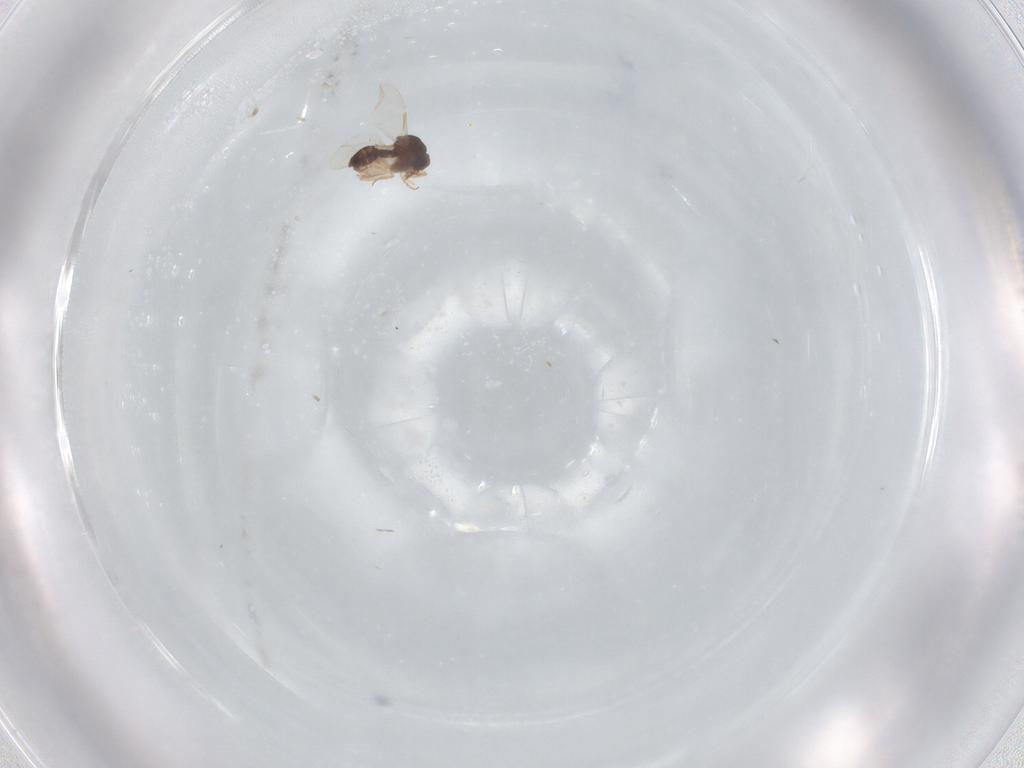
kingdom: Animalia
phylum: Arthropoda
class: Insecta
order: Diptera
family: Ceratopogonidae
